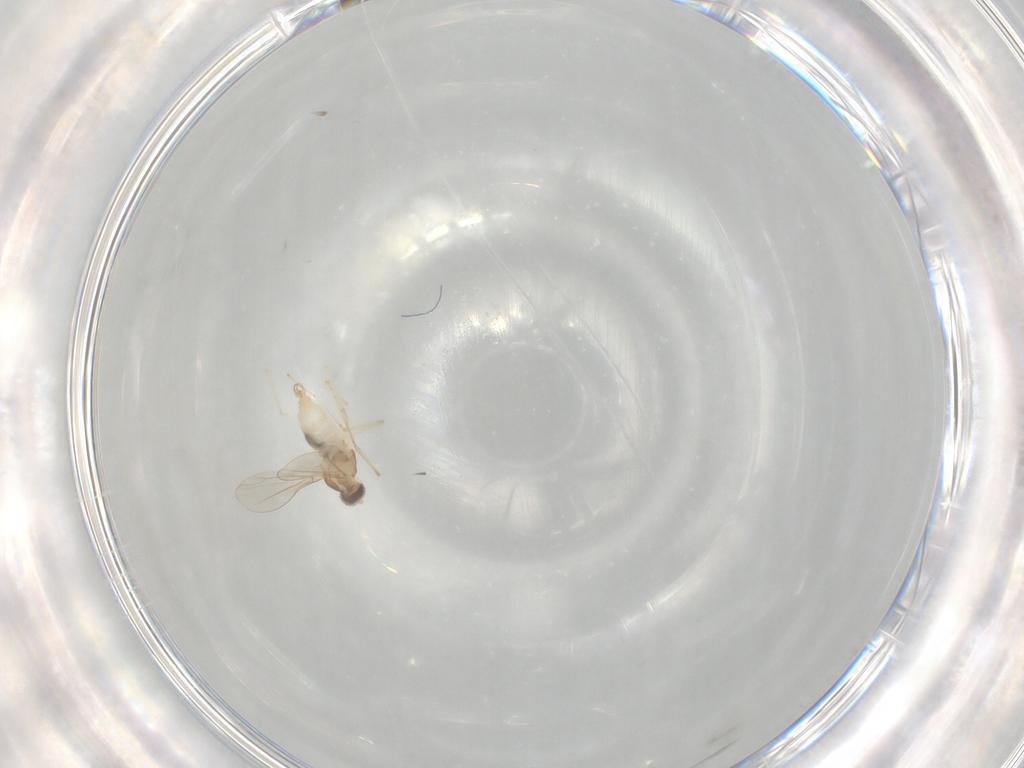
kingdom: Animalia
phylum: Arthropoda
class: Insecta
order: Diptera
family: Cecidomyiidae
